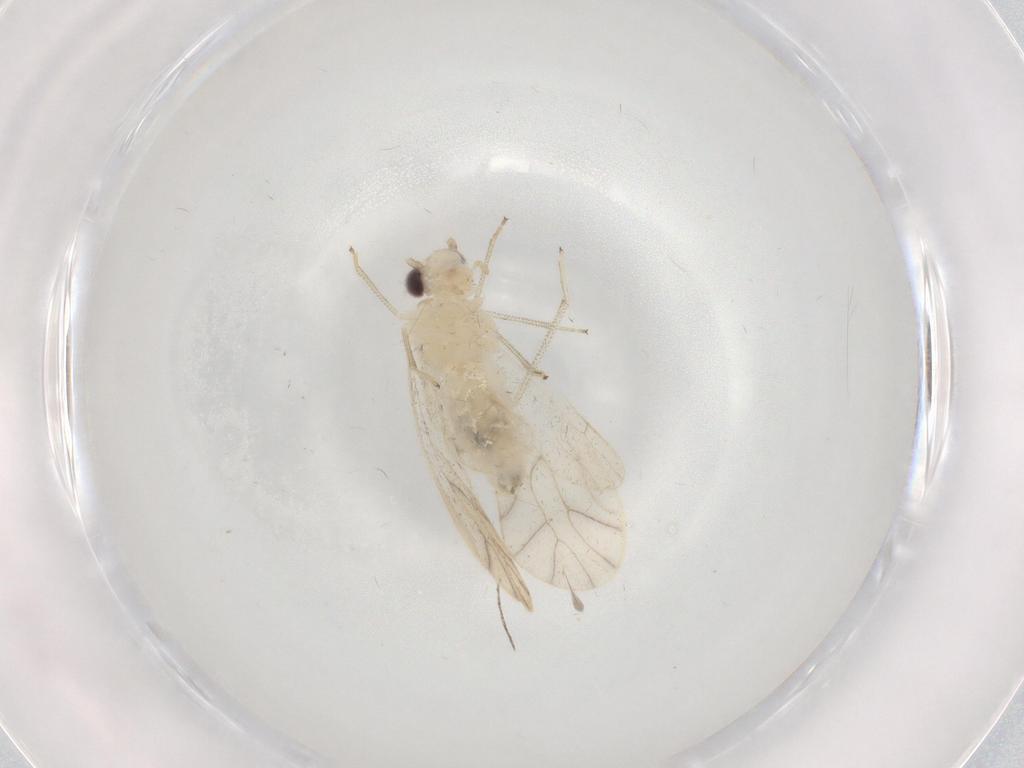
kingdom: Animalia
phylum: Arthropoda
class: Insecta
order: Psocodea
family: Caeciliusidae
